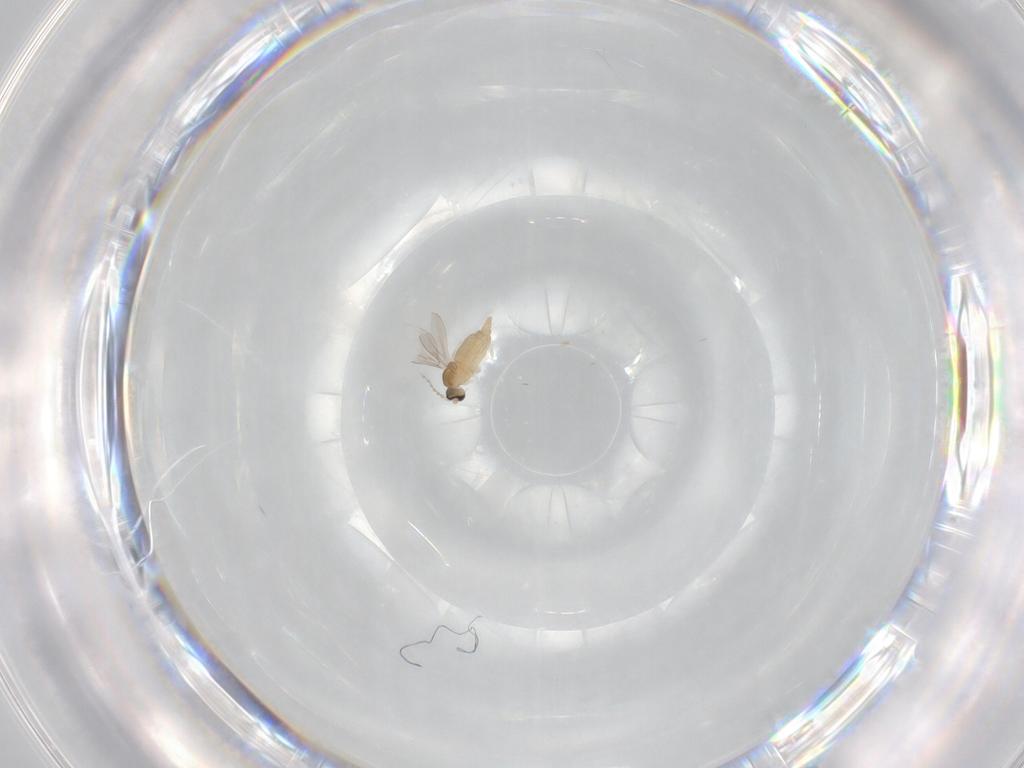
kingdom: Animalia
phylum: Arthropoda
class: Insecta
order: Diptera
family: Cecidomyiidae
